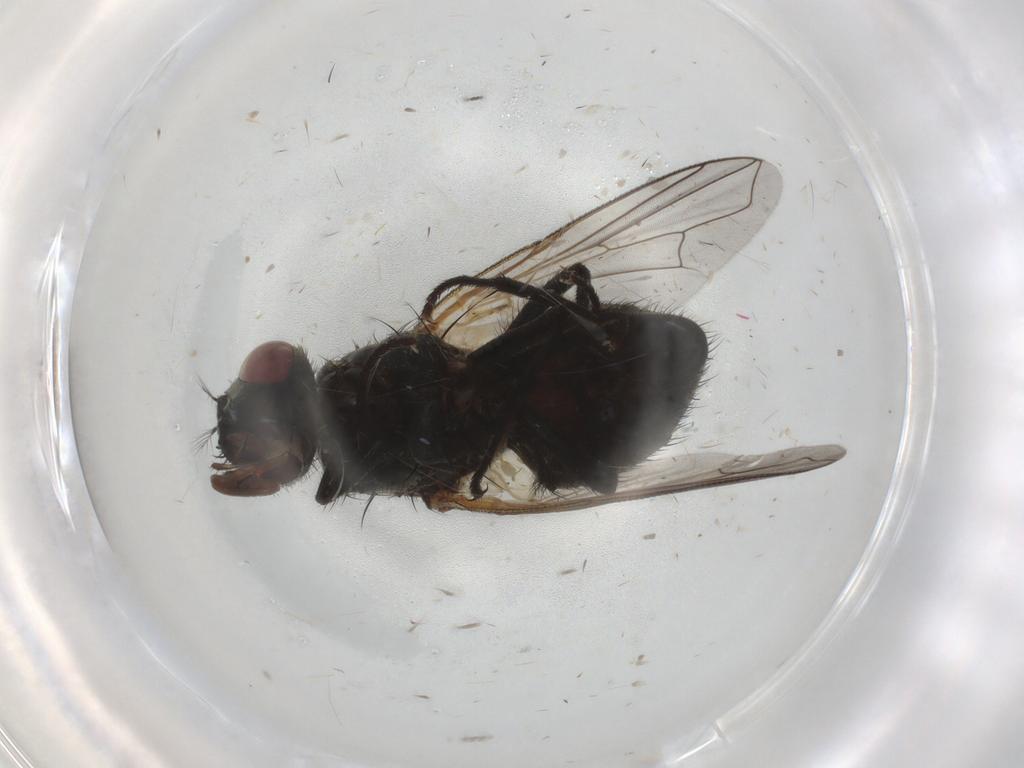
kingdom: Animalia
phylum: Arthropoda
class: Insecta
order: Diptera
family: Muscidae
